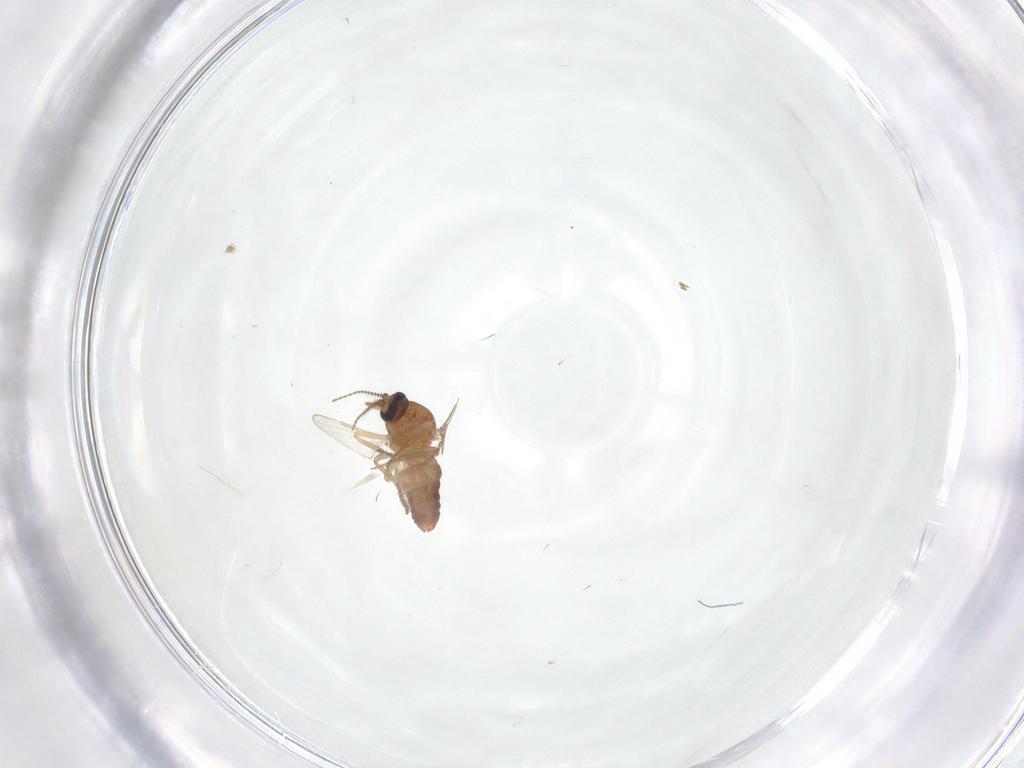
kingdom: Animalia
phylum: Arthropoda
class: Insecta
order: Diptera
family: Ceratopogonidae
